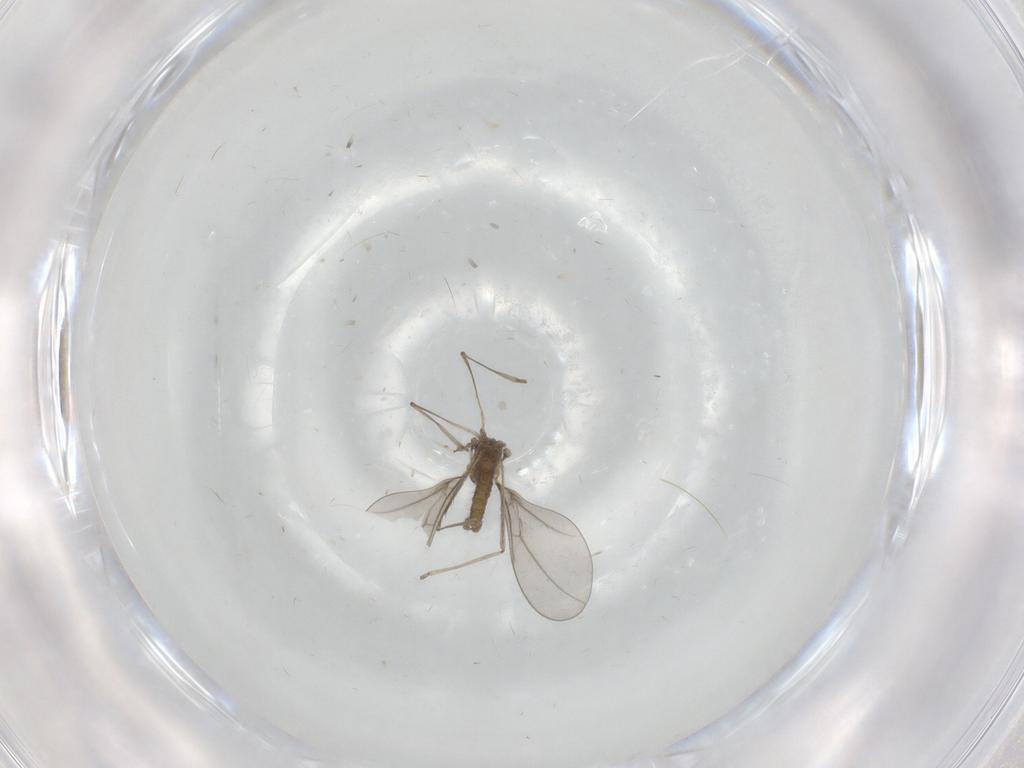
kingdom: Animalia
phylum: Arthropoda
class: Insecta
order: Diptera
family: Cecidomyiidae
